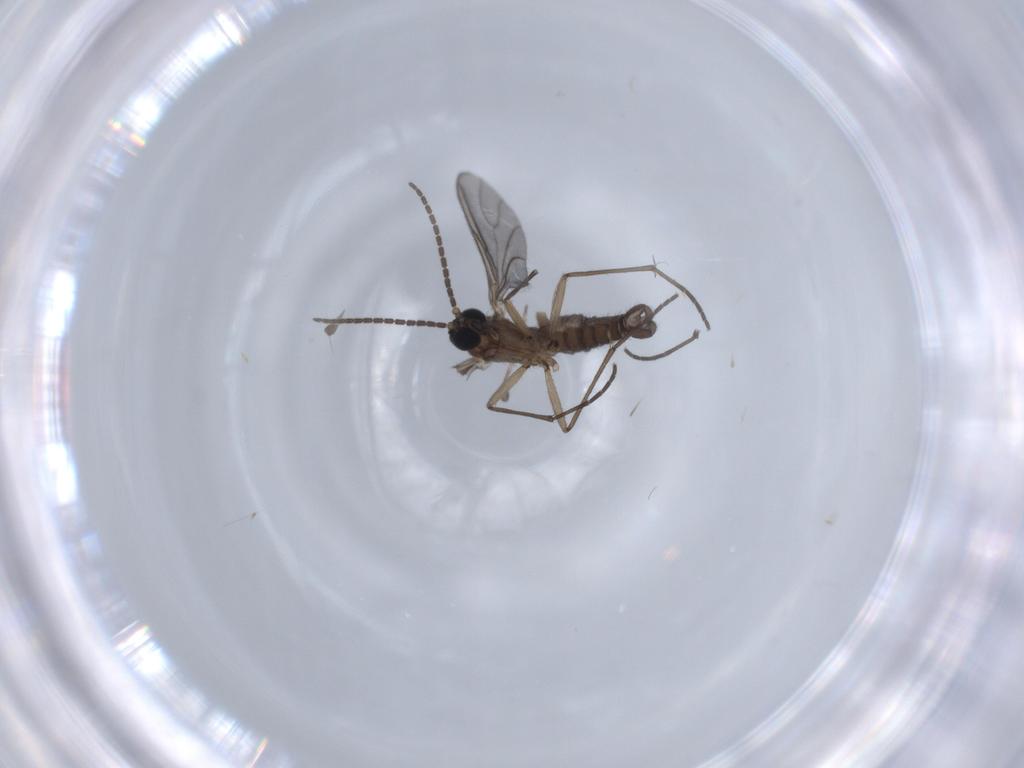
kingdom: Animalia
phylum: Arthropoda
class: Insecta
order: Diptera
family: Sciaridae
